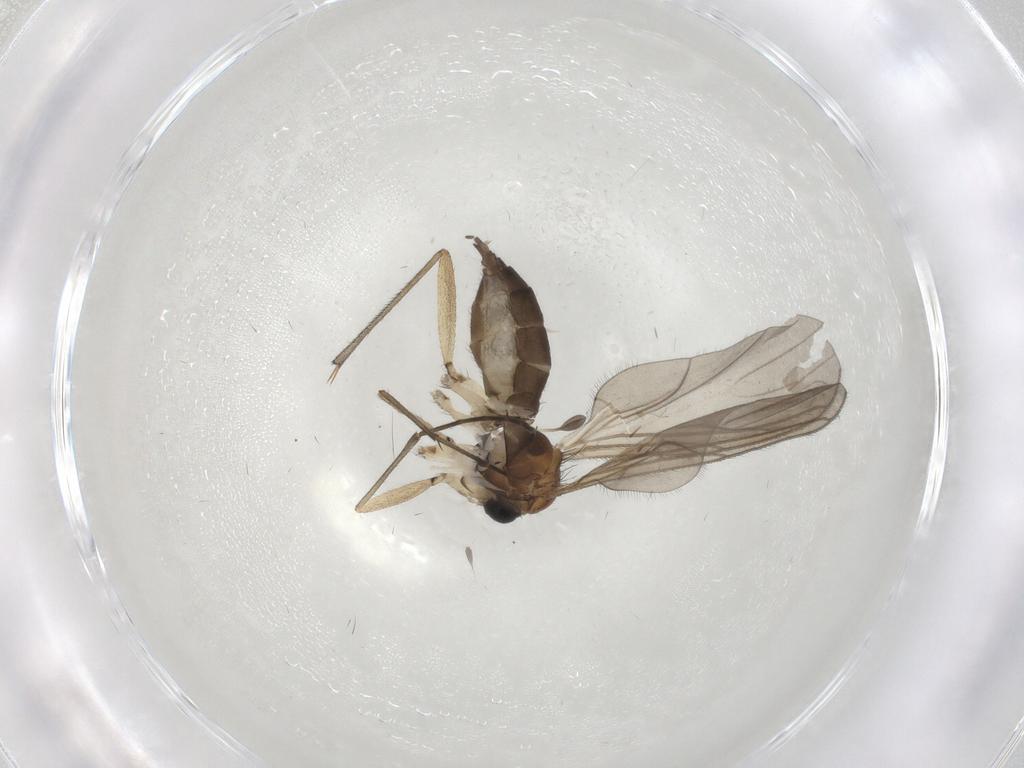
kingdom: Animalia
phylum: Arthropoda
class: Insecta
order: Diptera
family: Sciaridae
